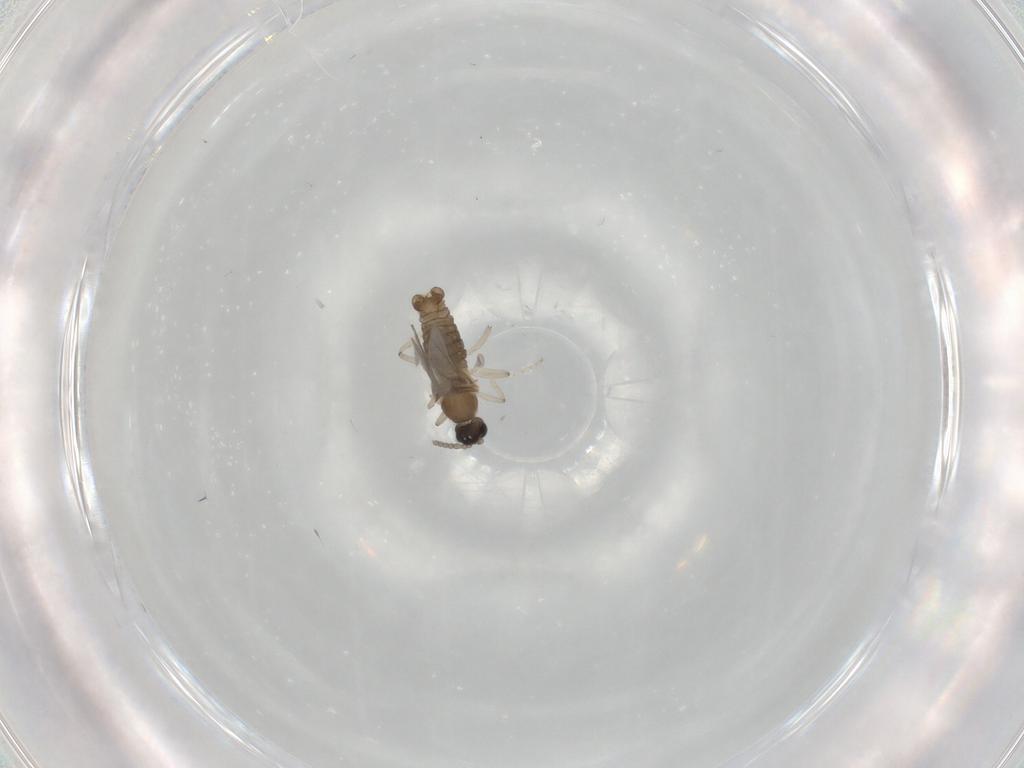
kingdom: Animalia
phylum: Arthropoda
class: Insecta
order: Diptera
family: Cecidomyiidae
